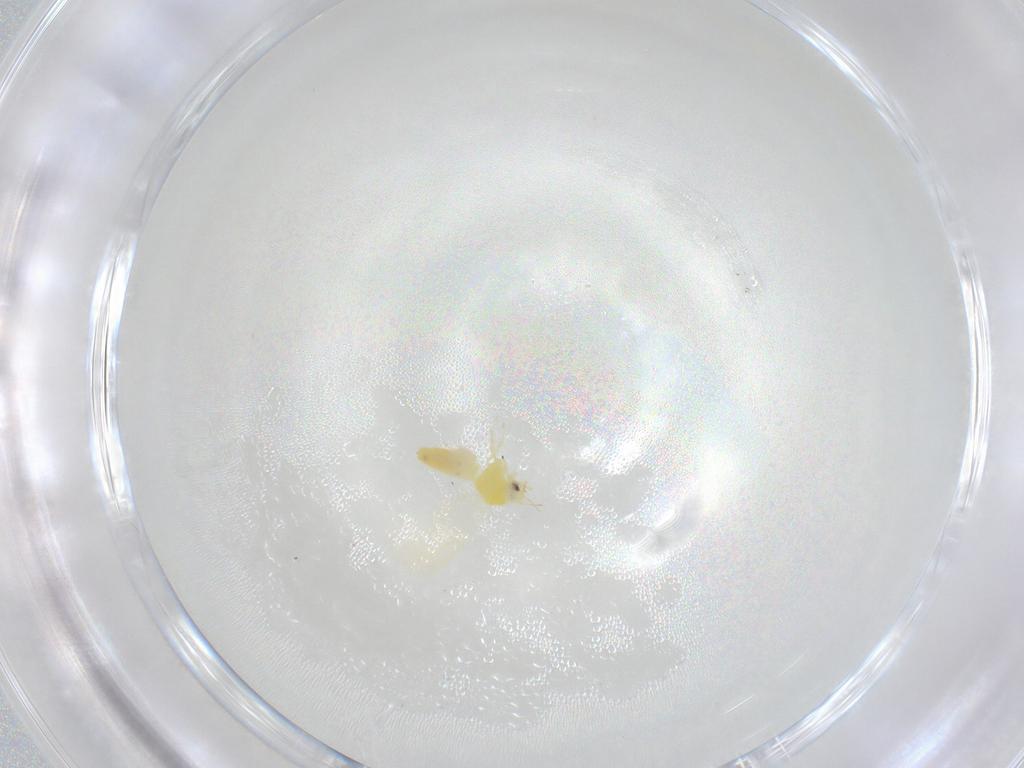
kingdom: Animalia
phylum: Arthropoda
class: Insecta
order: Hemiptera
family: Aleyrodidae
